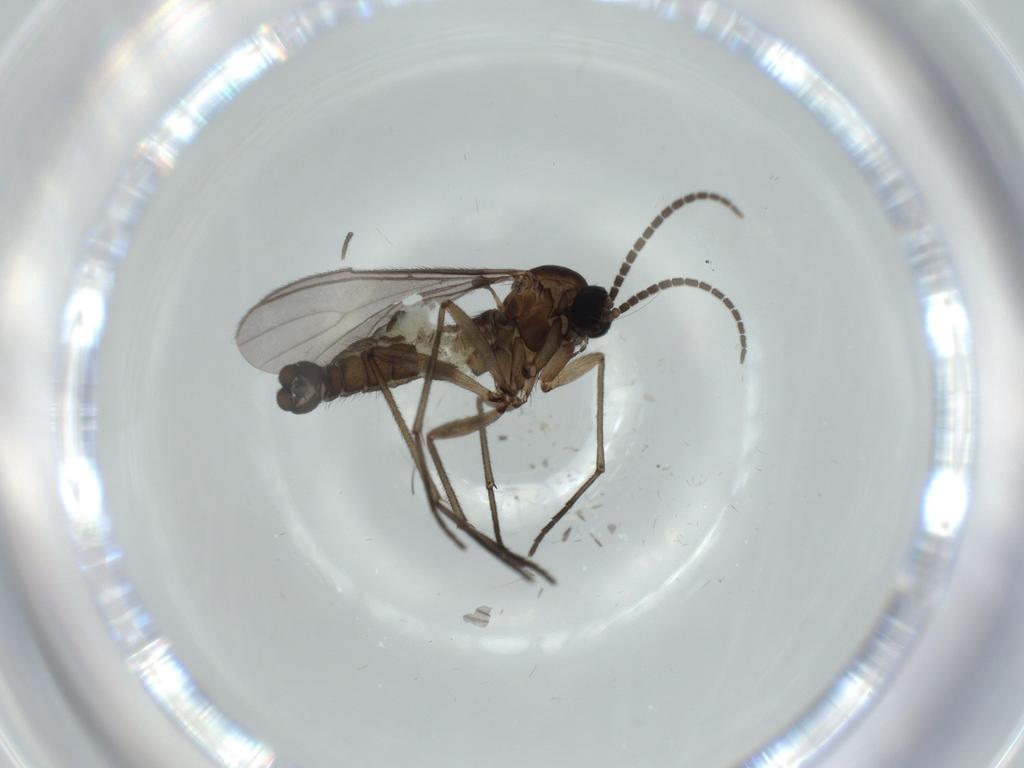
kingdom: Animalia
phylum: Arthropoda
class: Insecta
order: Diptera
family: Sciaridae
